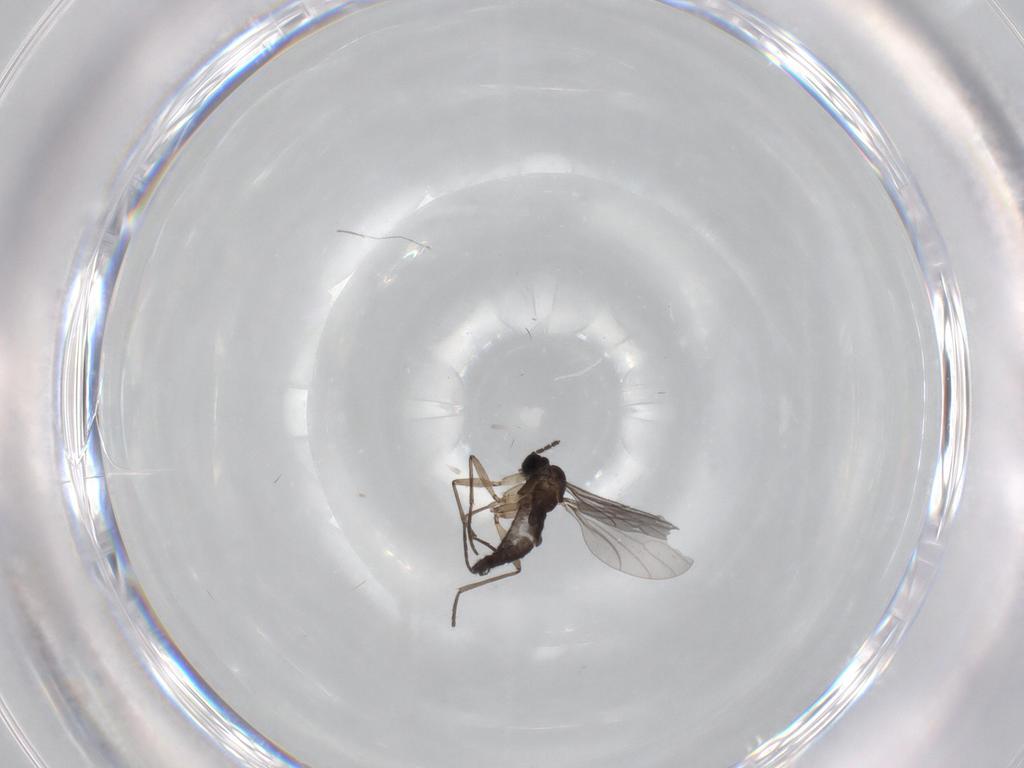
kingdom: Animalia
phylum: Arthropoda
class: Insecta
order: Diptera
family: Sciaridae
